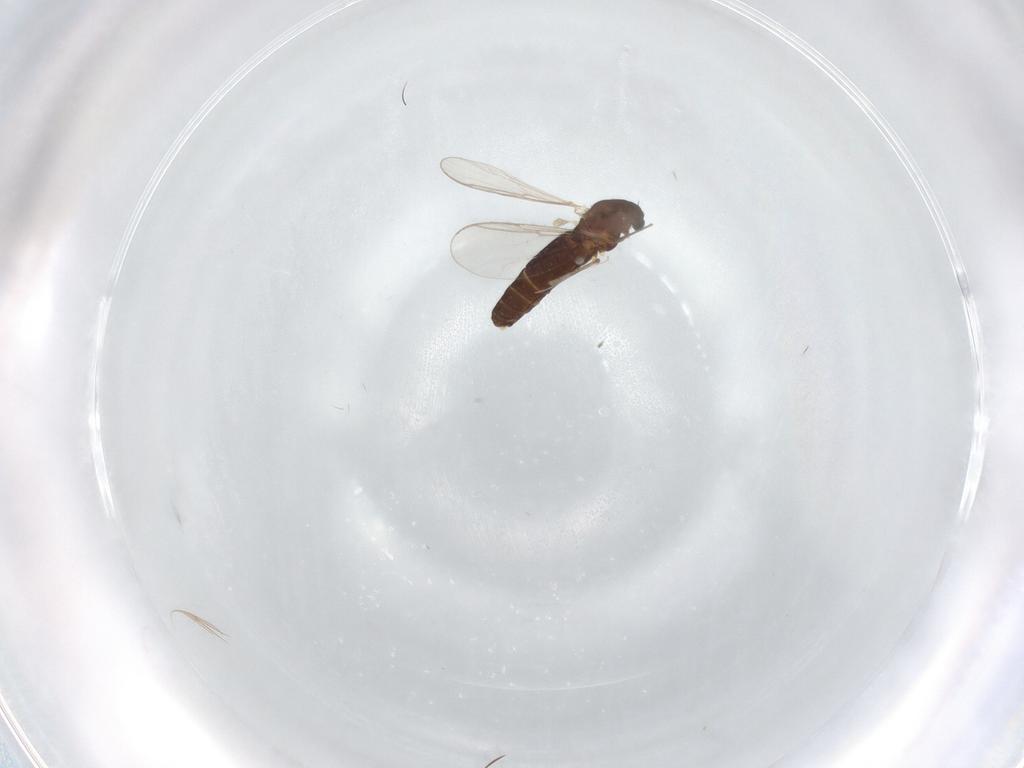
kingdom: Animalia
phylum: Arthropoda
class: Insecta
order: Diptera
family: Chironomidae
